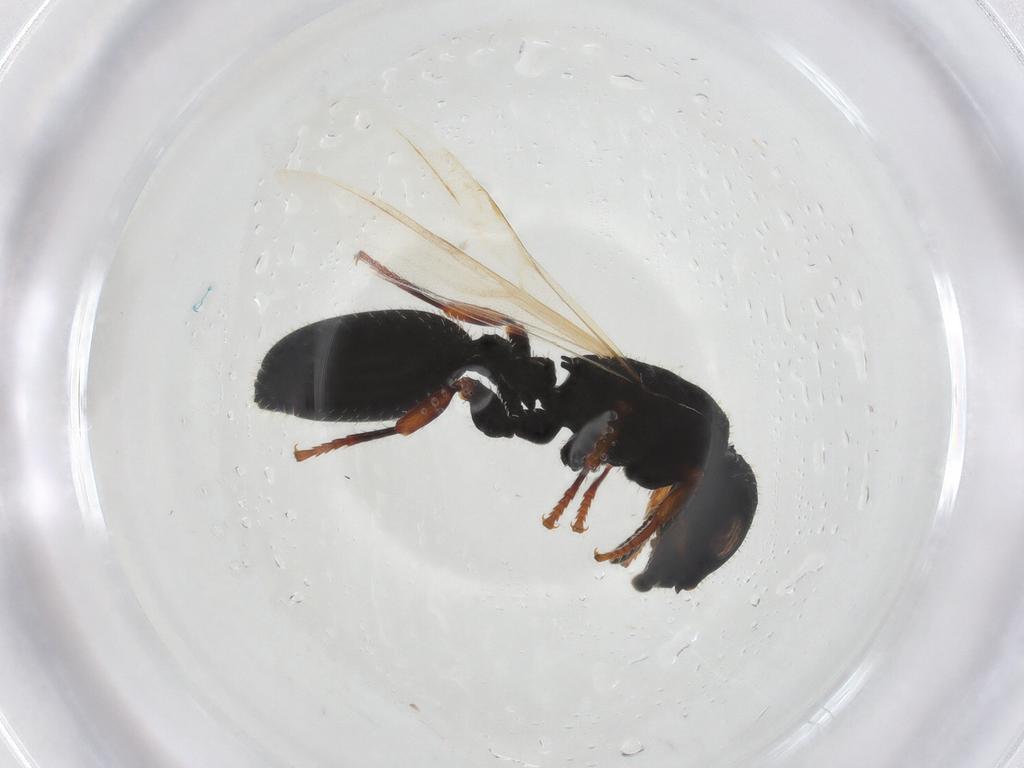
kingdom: Animalia
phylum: Arthropoda
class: Insecta
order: Hymenoptera
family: Formicidae
